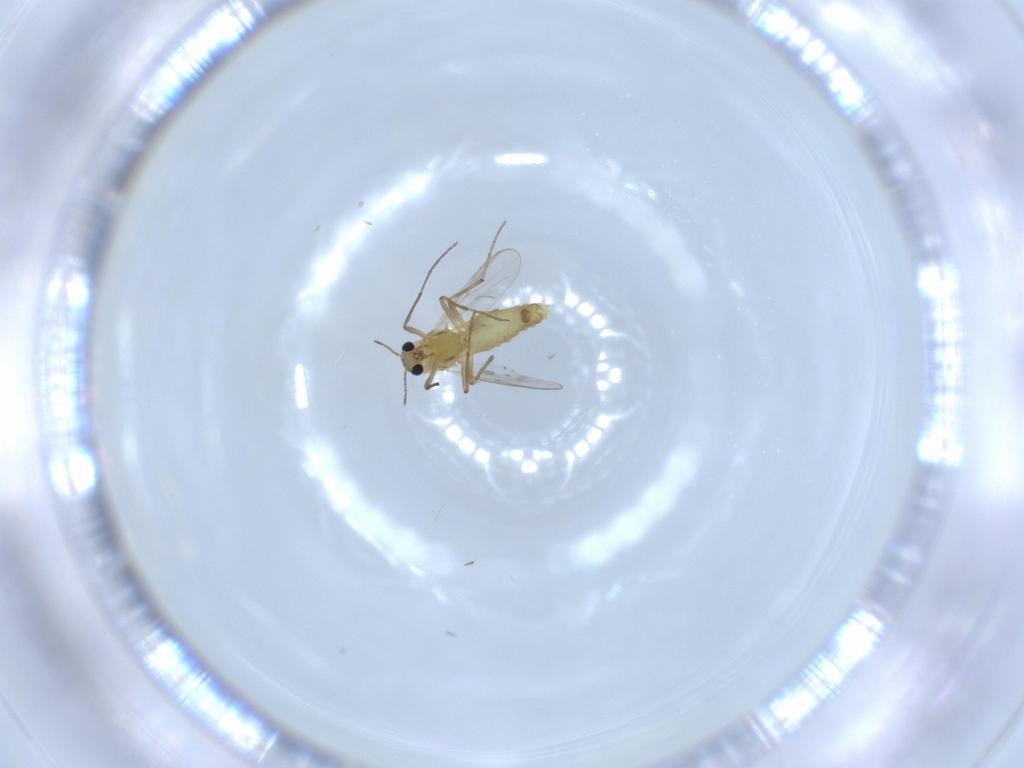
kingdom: Animalia
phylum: Arthropoda
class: Insecta
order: Diptera
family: Chironomidae
